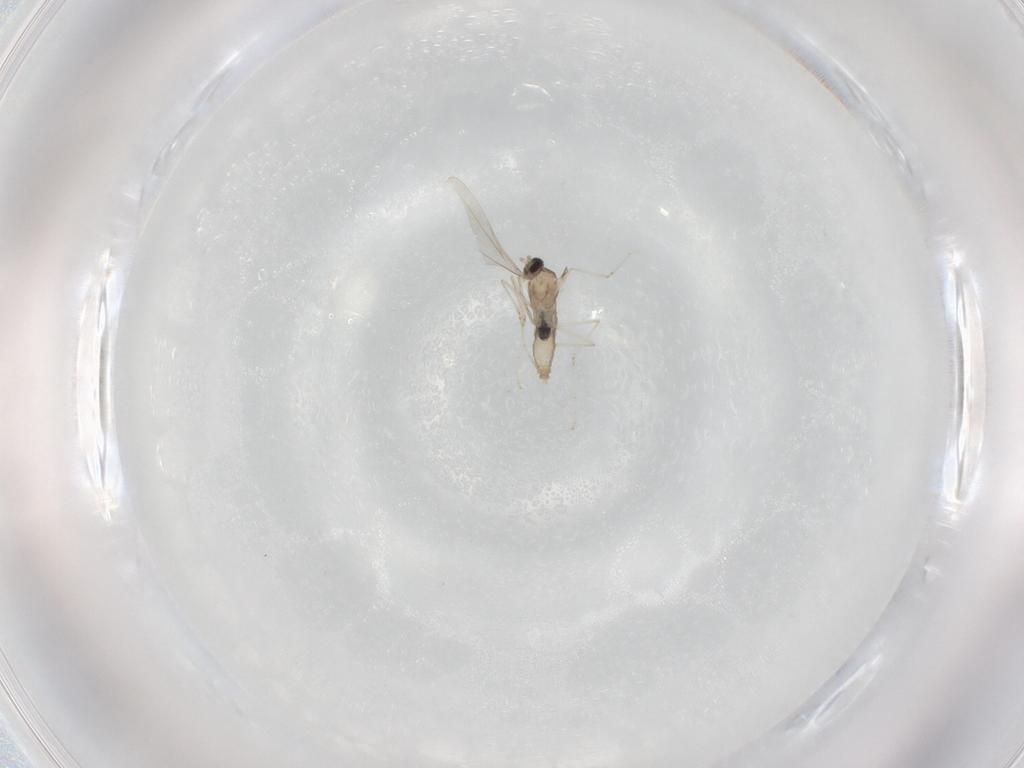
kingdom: Animalia
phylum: Arthropoda
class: Insecta
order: Diptera
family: Cecidomyiidae
